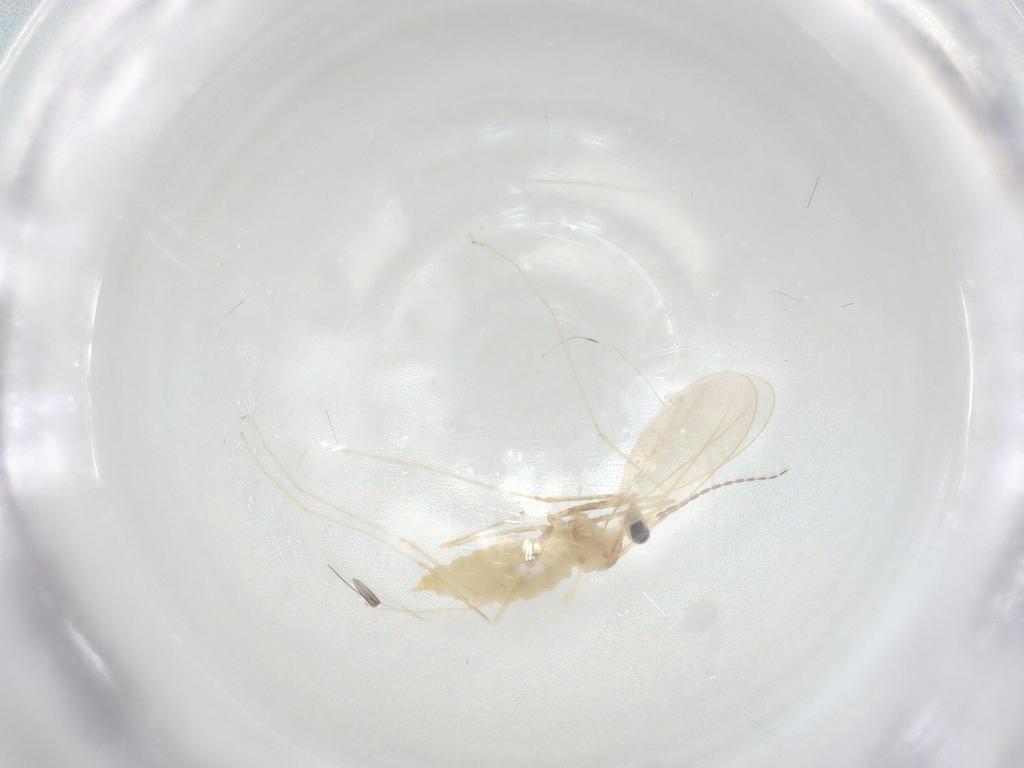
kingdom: Animalia
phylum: Arthropoda
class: Insecta
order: Diptera
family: Cecidomyiidae
